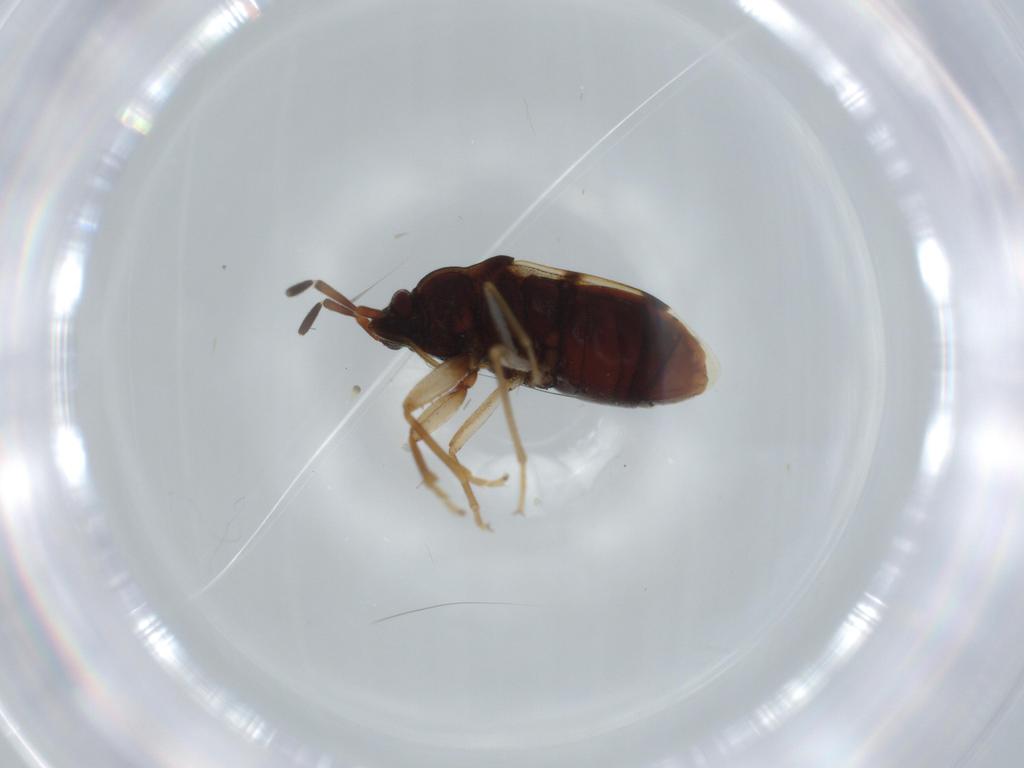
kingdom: Animalia
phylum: Arthropoda
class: Insecta
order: Hemiptera
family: Rhyparochromidae
